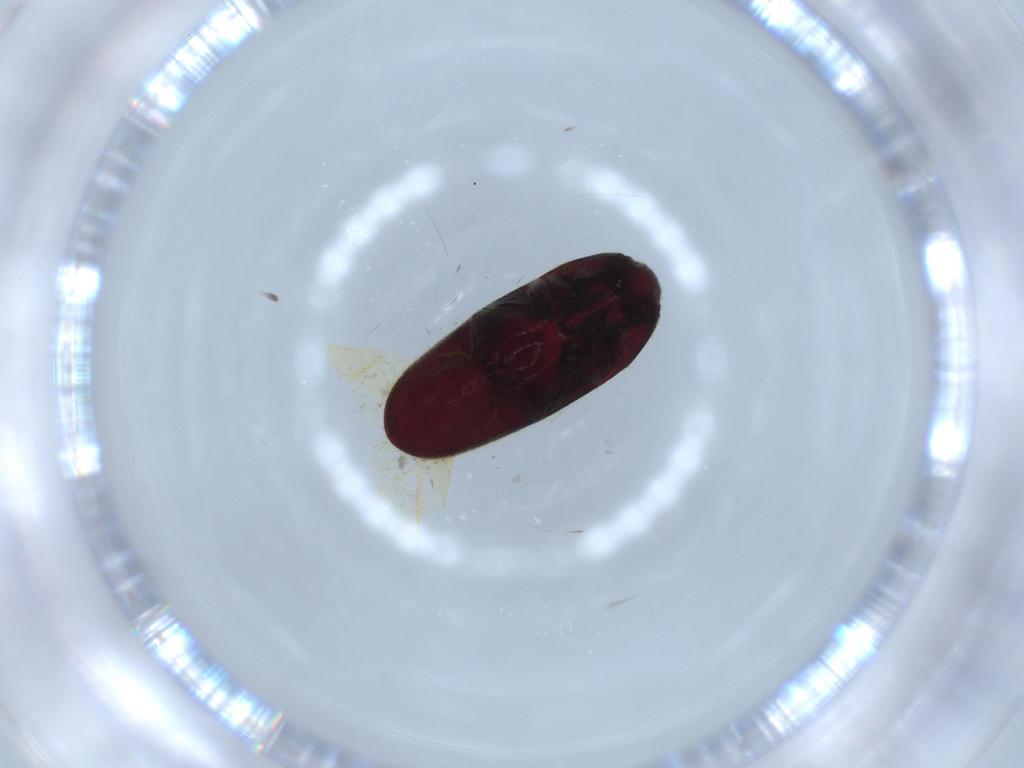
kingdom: Animalia
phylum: Arthropoda
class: Insecta
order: Coleoptera
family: Throscidae
